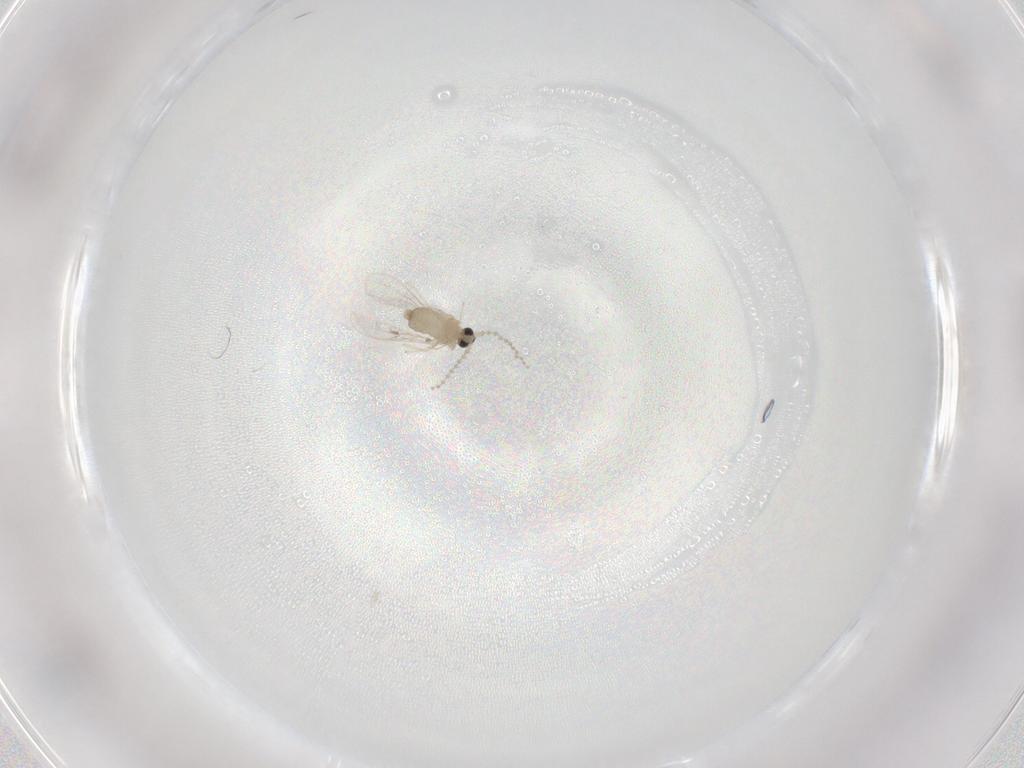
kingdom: Animalia
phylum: Arthropoda
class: Insecta
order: Diptera
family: Cecidomyiidae
